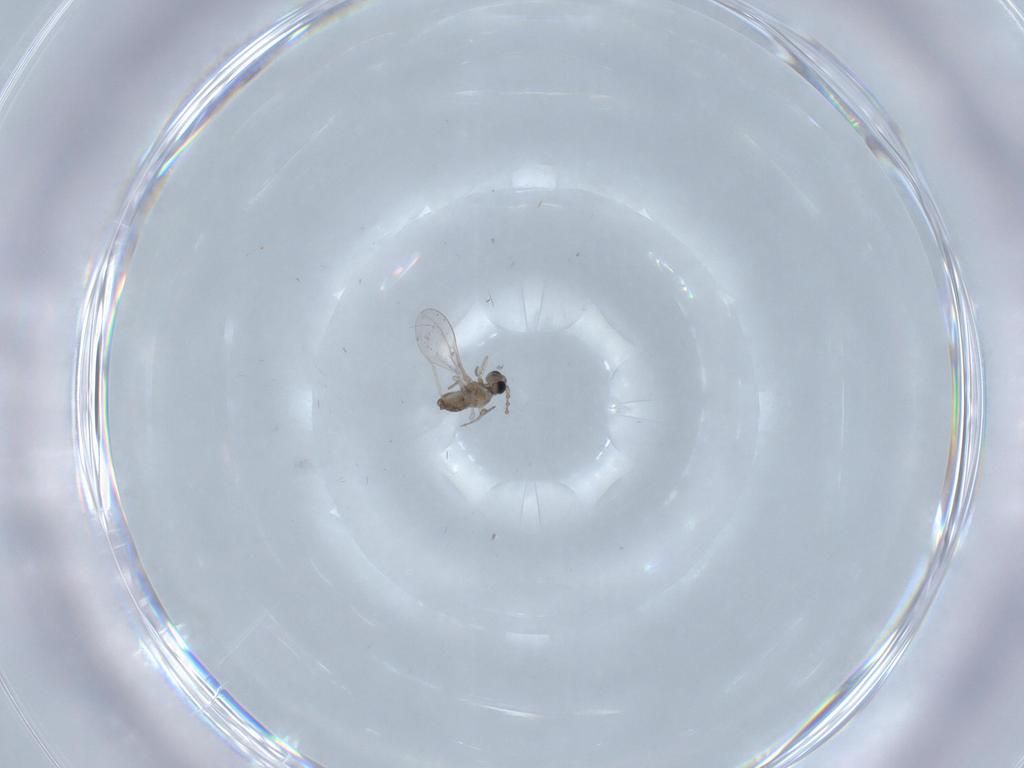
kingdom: Animalia
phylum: Arthropoda
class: Insecta
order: Diptera
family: Cecidomyiidae
